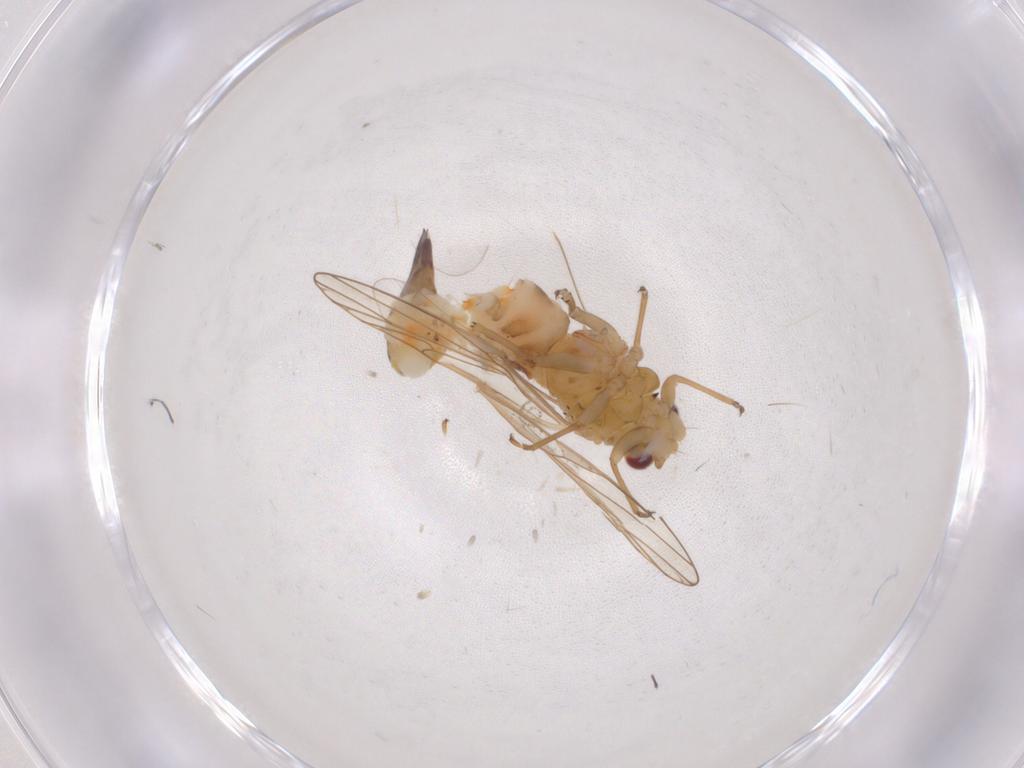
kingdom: Animalia
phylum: Arthropoda
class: Insecta
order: Hemiptera
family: Psyllidae
